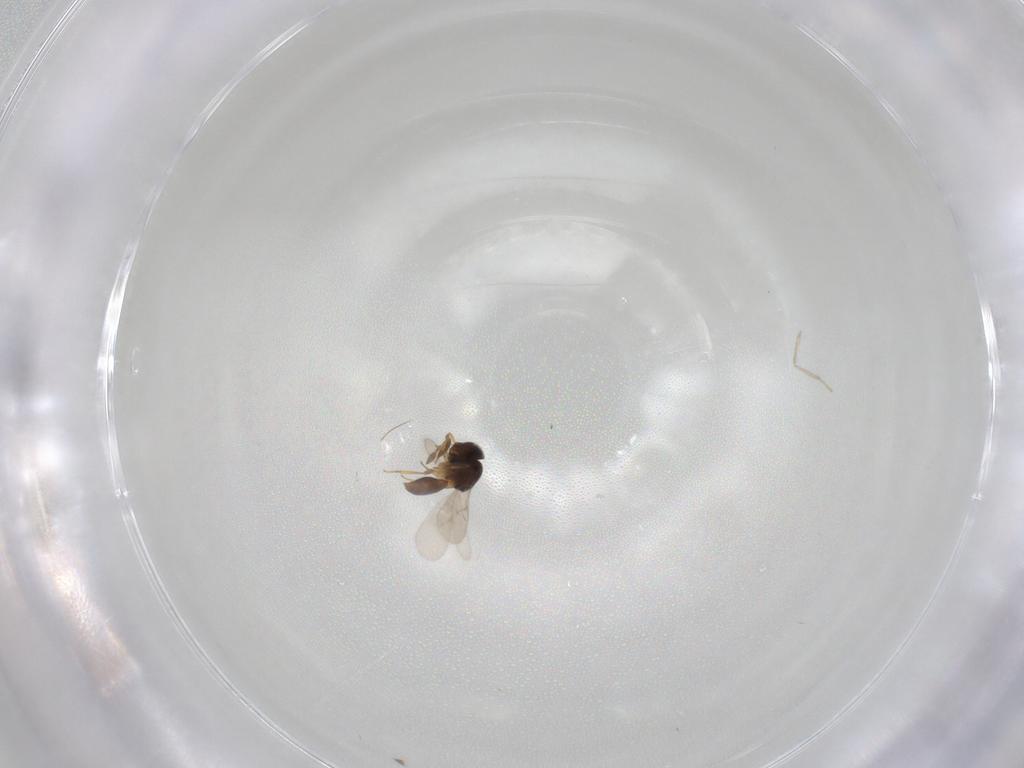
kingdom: Animalia
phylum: Arthropoda
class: Insecta
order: Hymenoptera
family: Scelionidae
